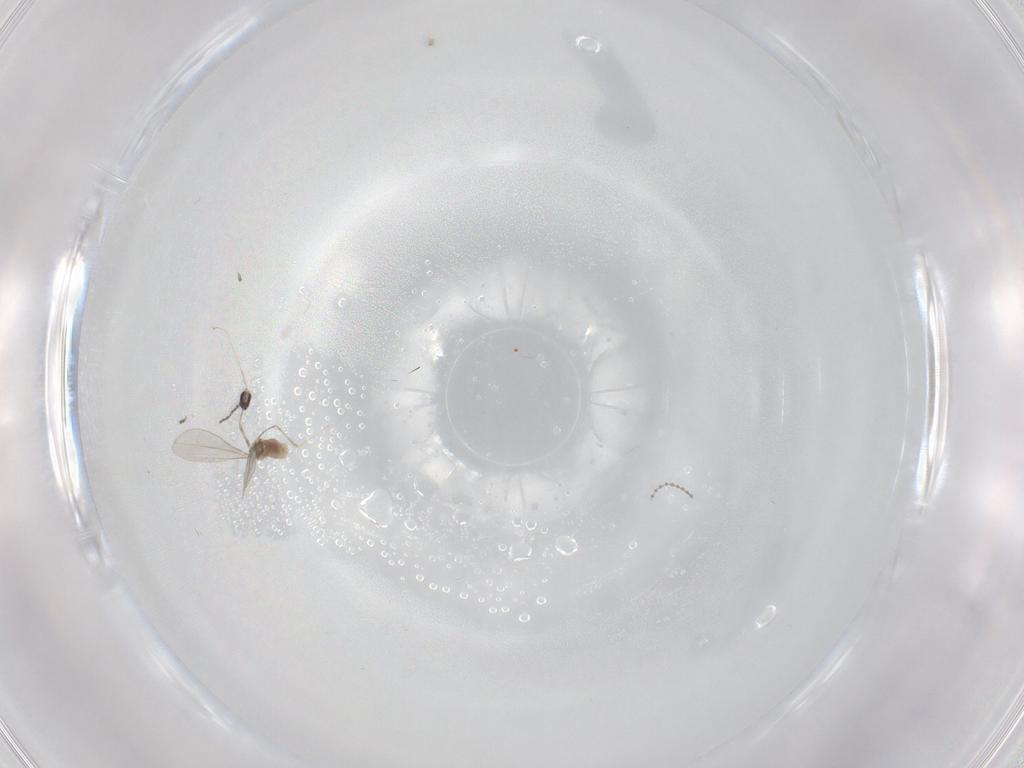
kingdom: Animalia
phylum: Arthropoda
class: Insecta
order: Diptera
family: Cecidomyiidae
